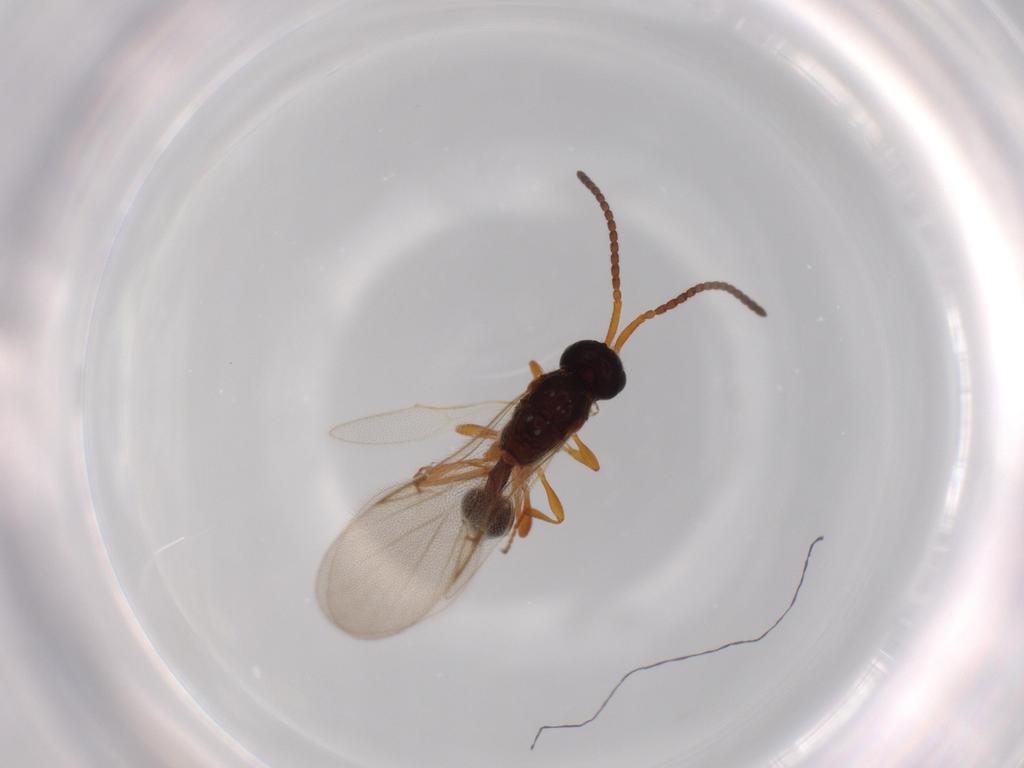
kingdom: Animalia
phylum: Arthropoda
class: Insecta
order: Hymenoptera
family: Diapriidae
